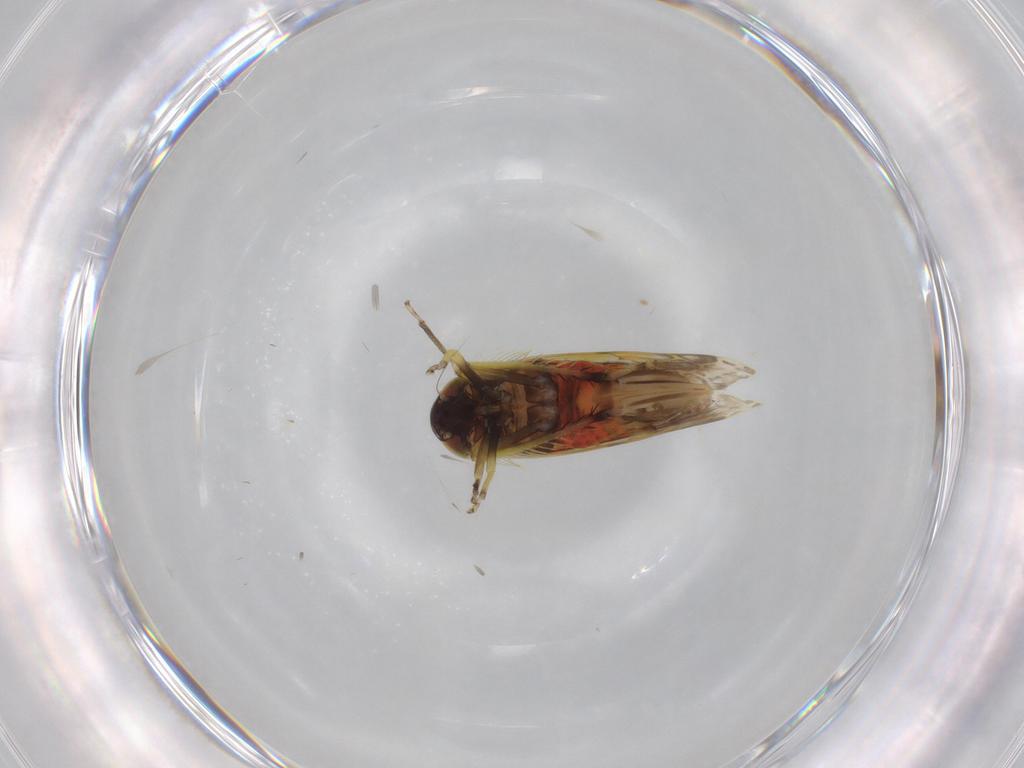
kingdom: Animalia
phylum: Arthropoda
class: Insecta
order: Hemiptera
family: Cicadellidae
